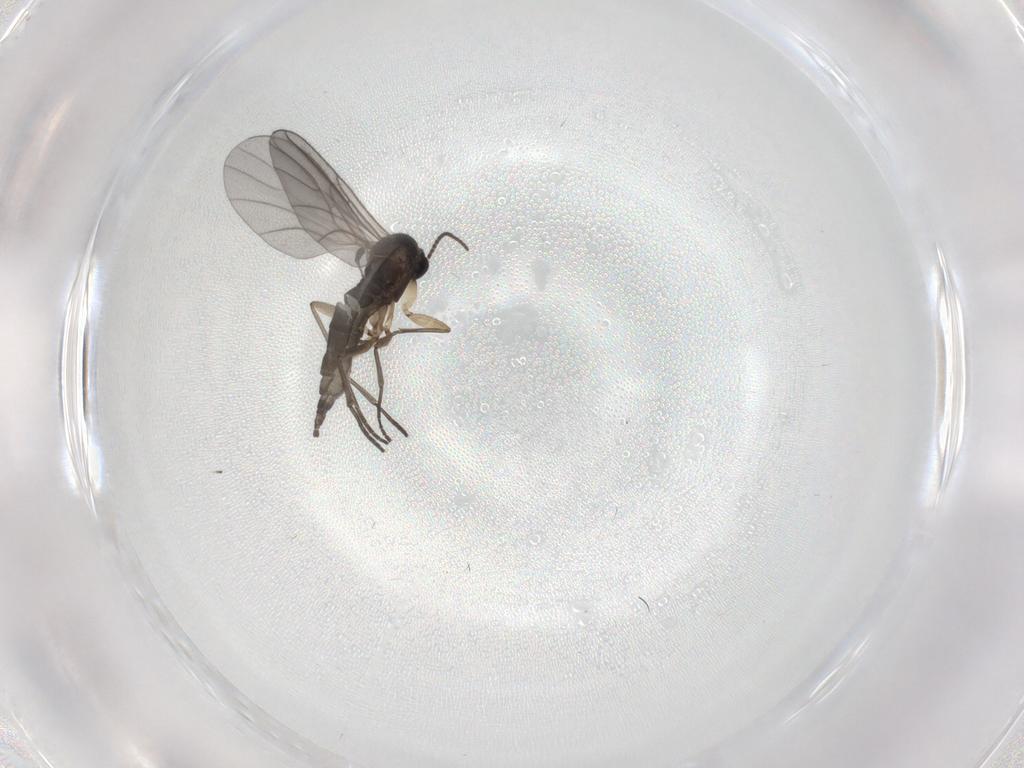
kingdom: Animalia
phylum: Arthropoda
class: Insecta
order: Diptera
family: Sciaridae
